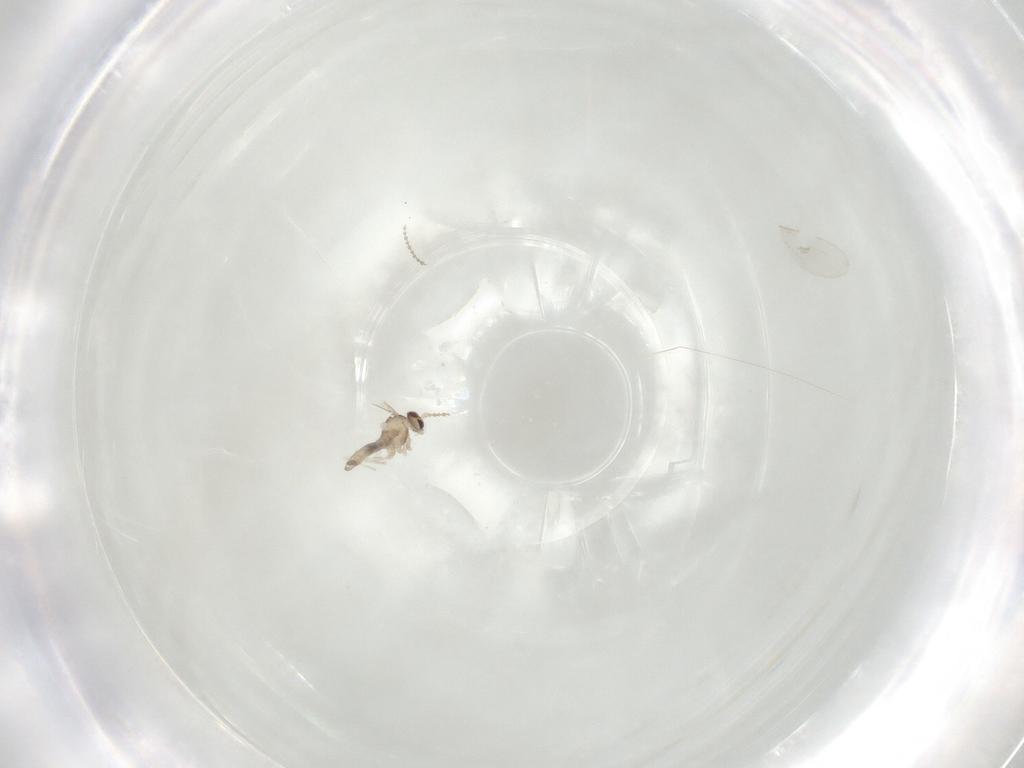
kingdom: Animalia
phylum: Arthropoda
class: Insecta
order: Diptera
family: Cecidomyiidae
